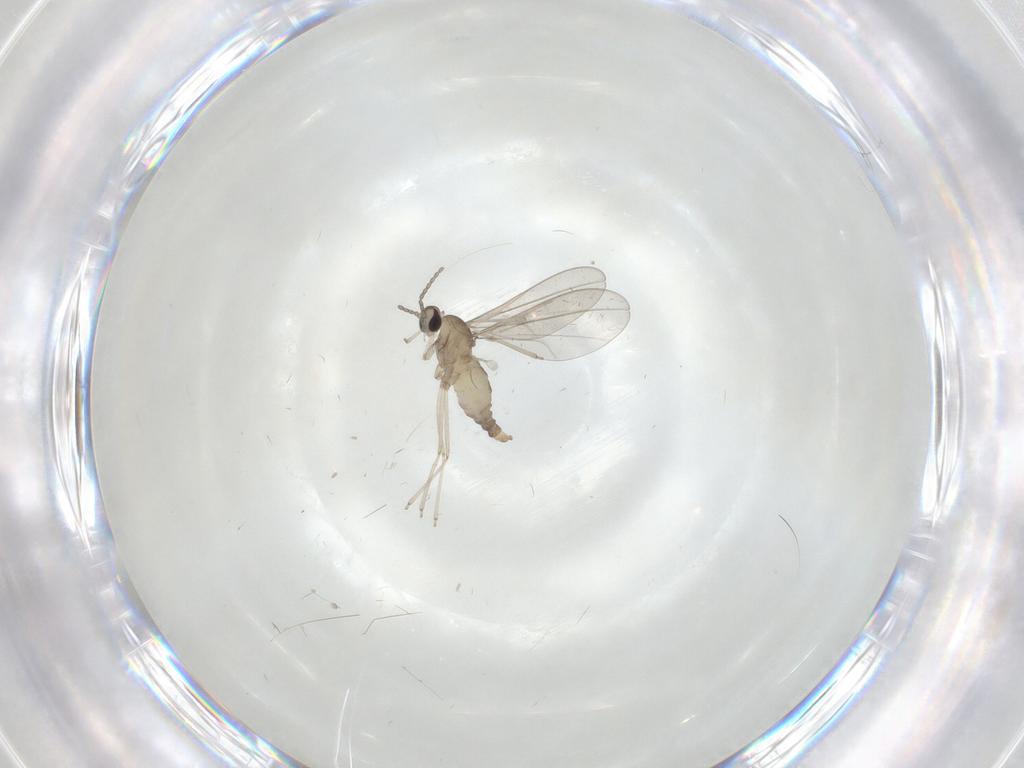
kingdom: Animalia
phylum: Arthropoda
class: Insecta
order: Diptera
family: Cecidomyiidae
